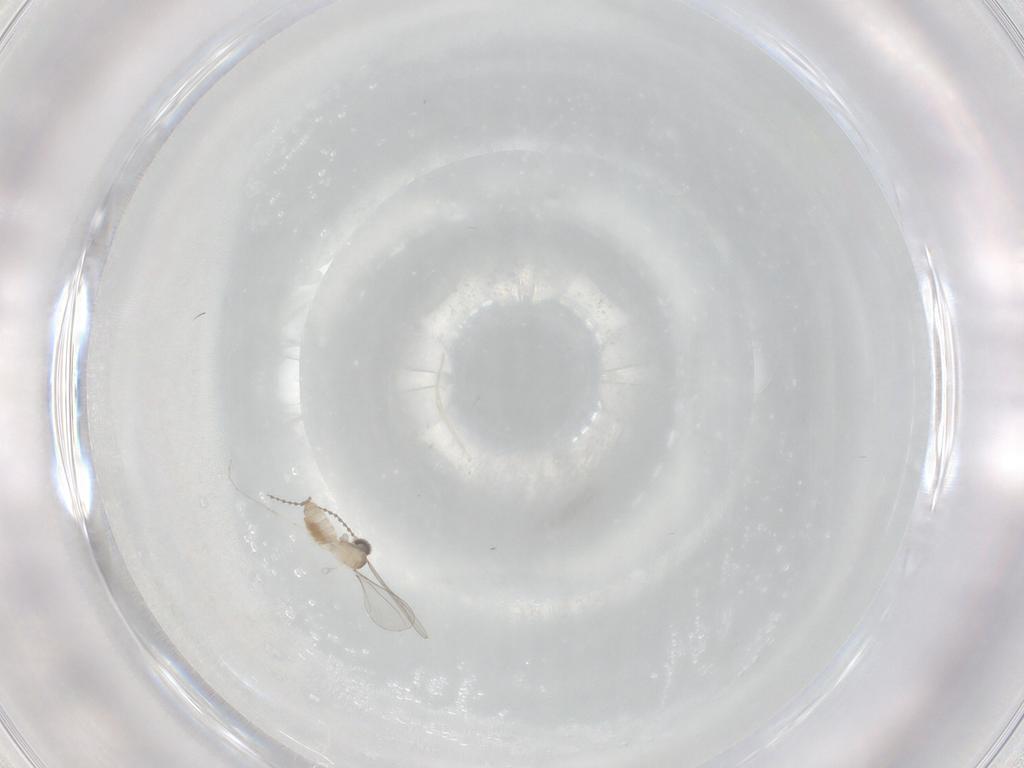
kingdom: Animalia
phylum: Arthropoda
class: Insecta
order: Diptera
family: Cecidomyiidae
